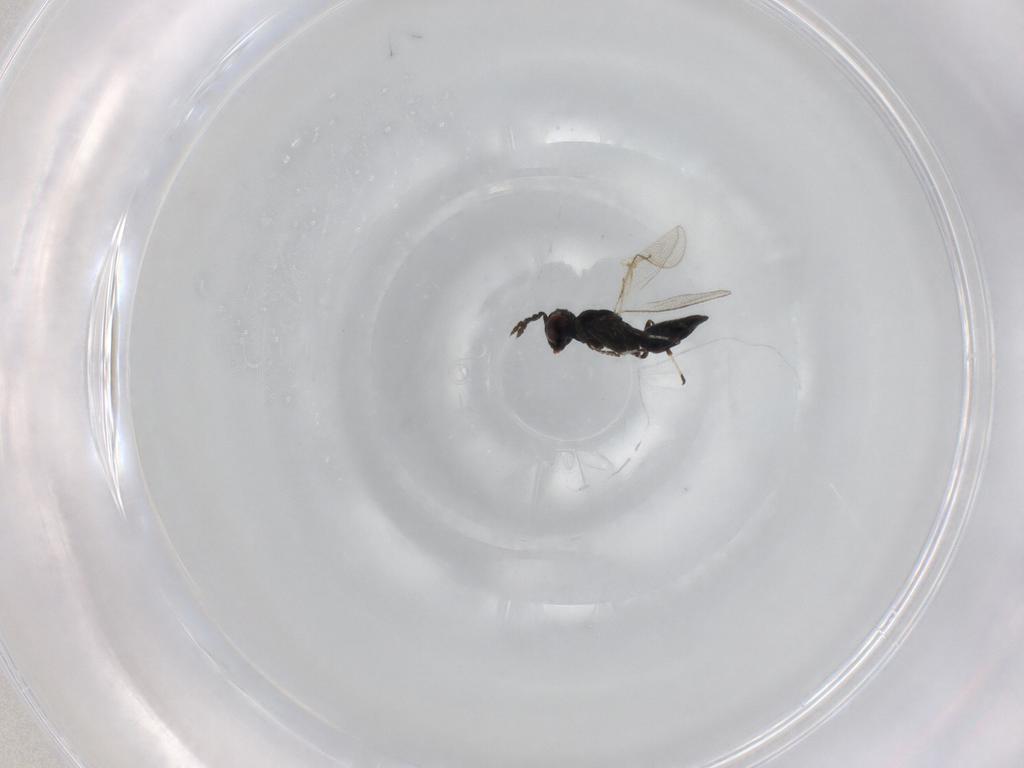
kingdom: Animalia
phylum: Arthropoda
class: Insecta
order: Hymenoptera
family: Eulophidae
